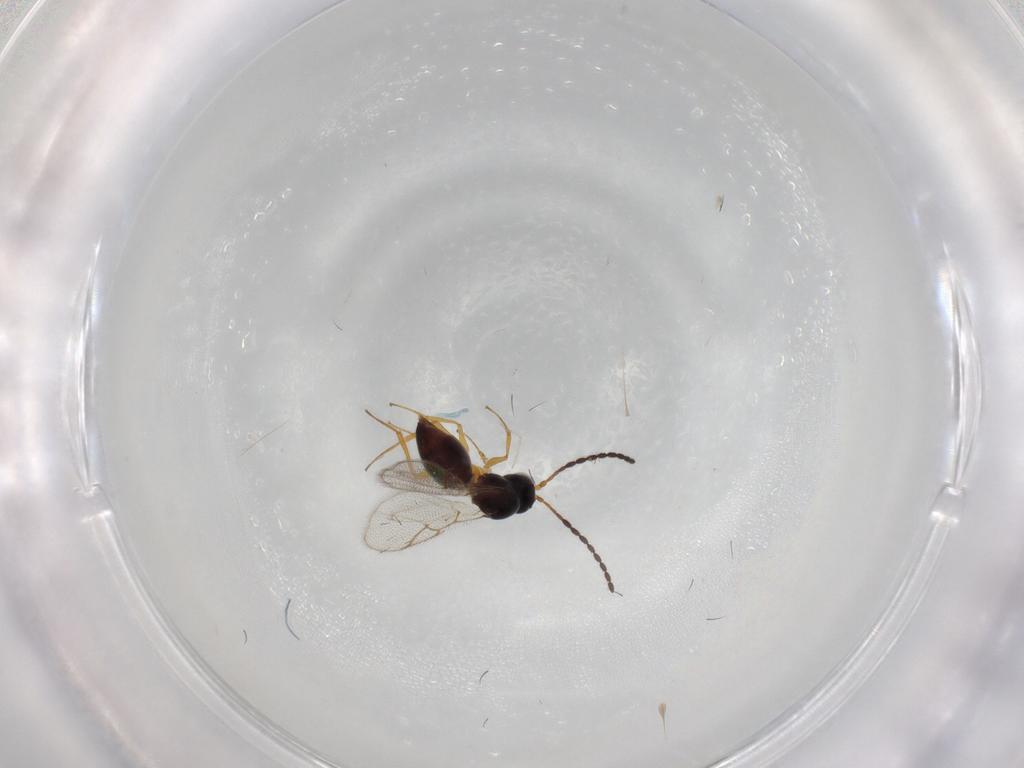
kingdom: Animalia
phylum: Arthropoda
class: Insecta
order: Hymenoptera
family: Figitidae
